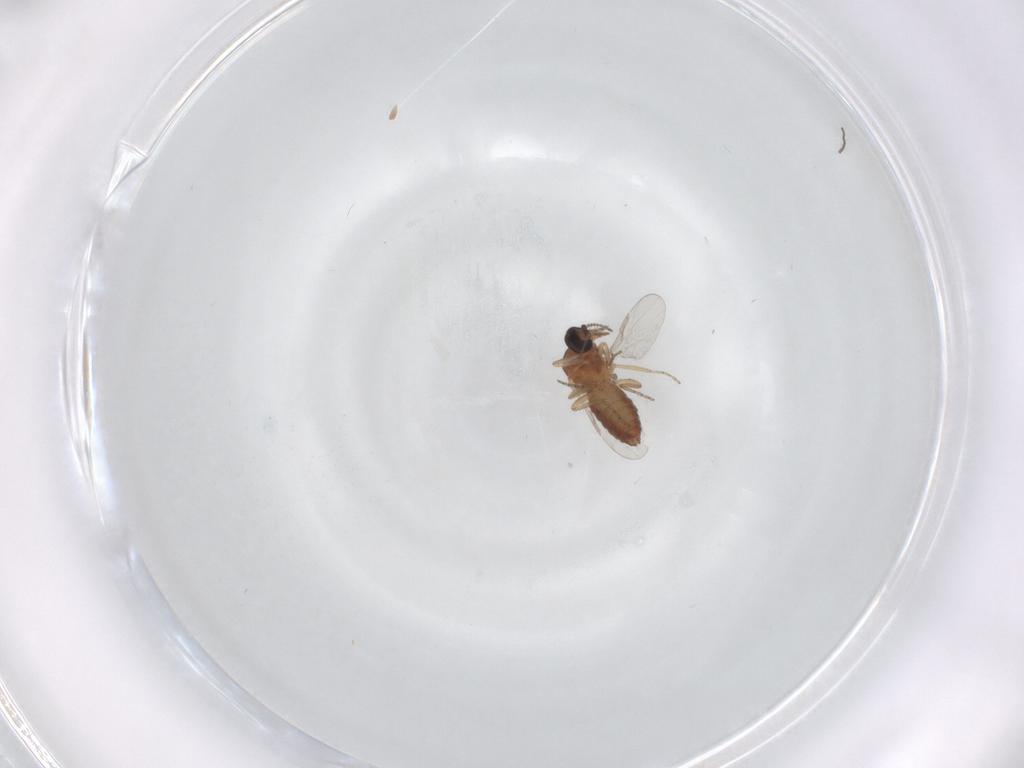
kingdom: Animalia
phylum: Arthropoda
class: Insecta
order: Diptera
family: Ceratopogonidae
